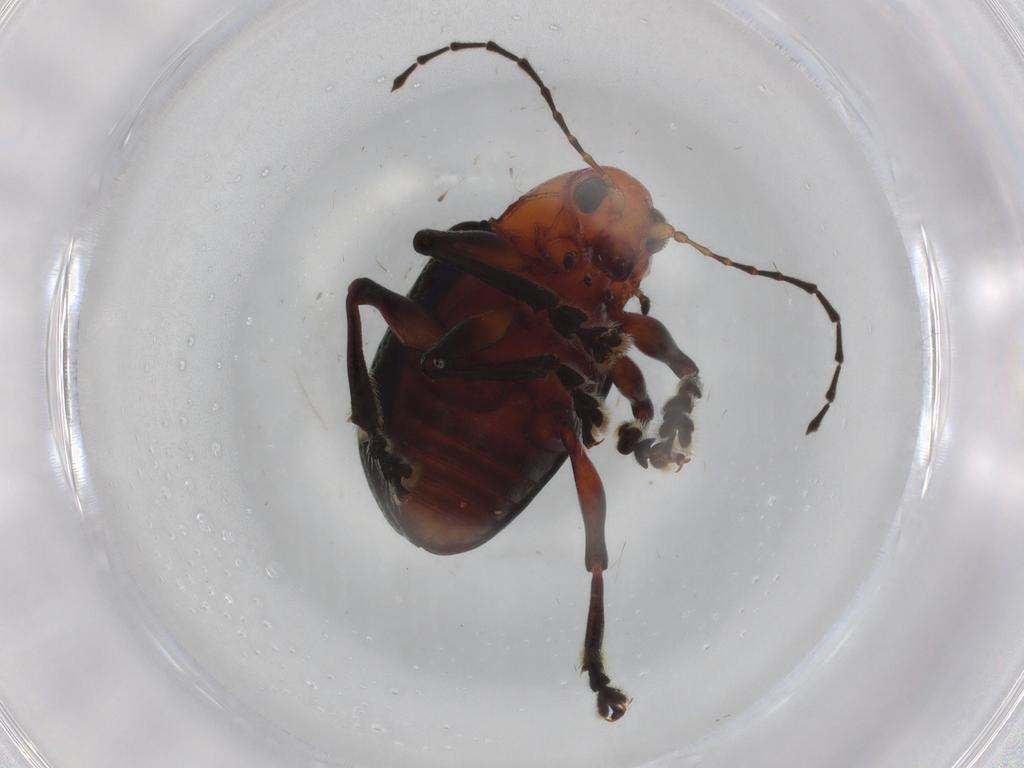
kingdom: Animalia
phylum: Arthropoda
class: Insecta
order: Coleoptera
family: Chrysomelidae
